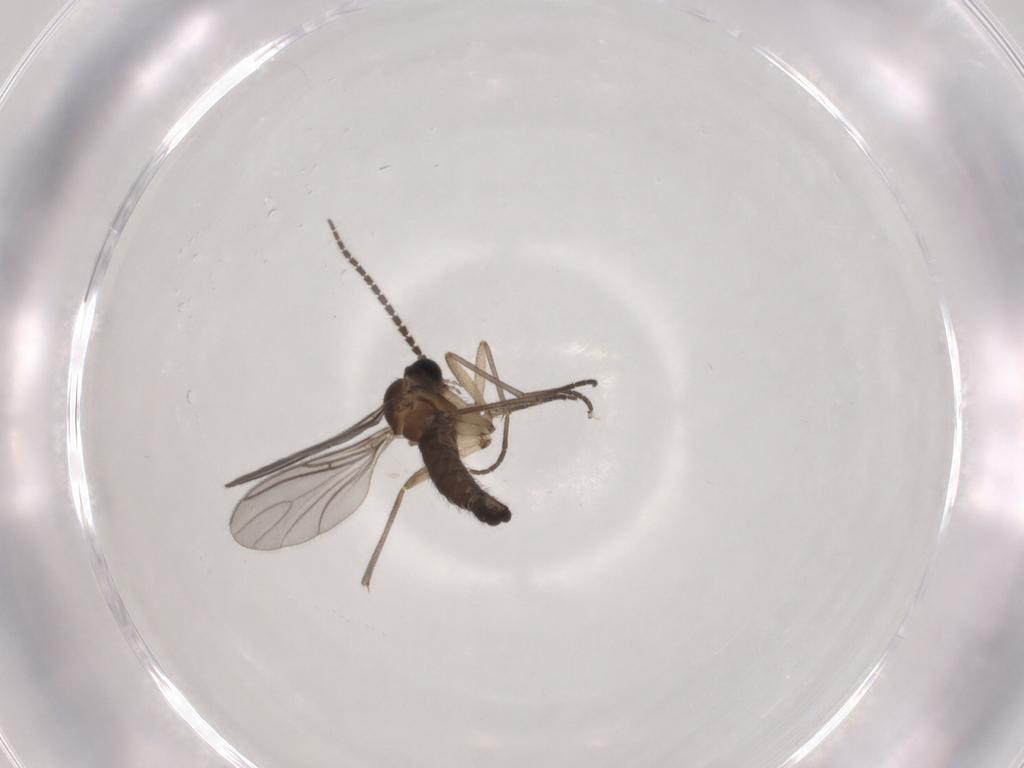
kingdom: Animalia
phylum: Arthropoda
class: Insecta
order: Diptera
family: Sciaridae
